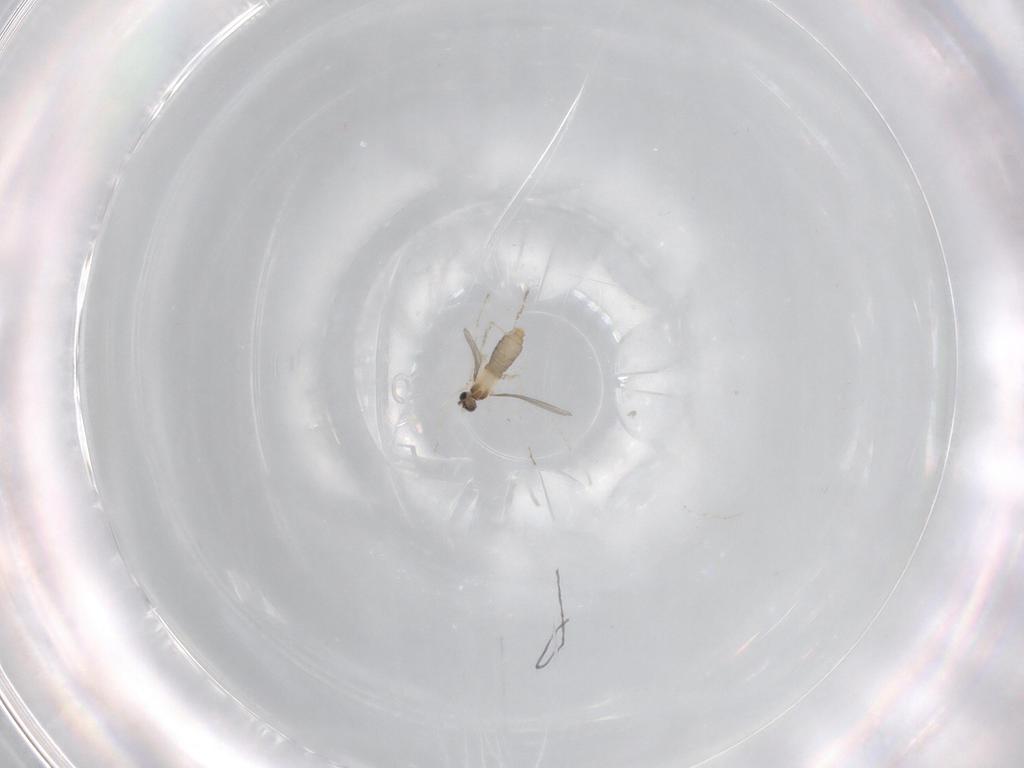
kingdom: Animalia
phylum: Arthropoda
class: Insecta
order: Diptera
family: Cecidomyiidae
